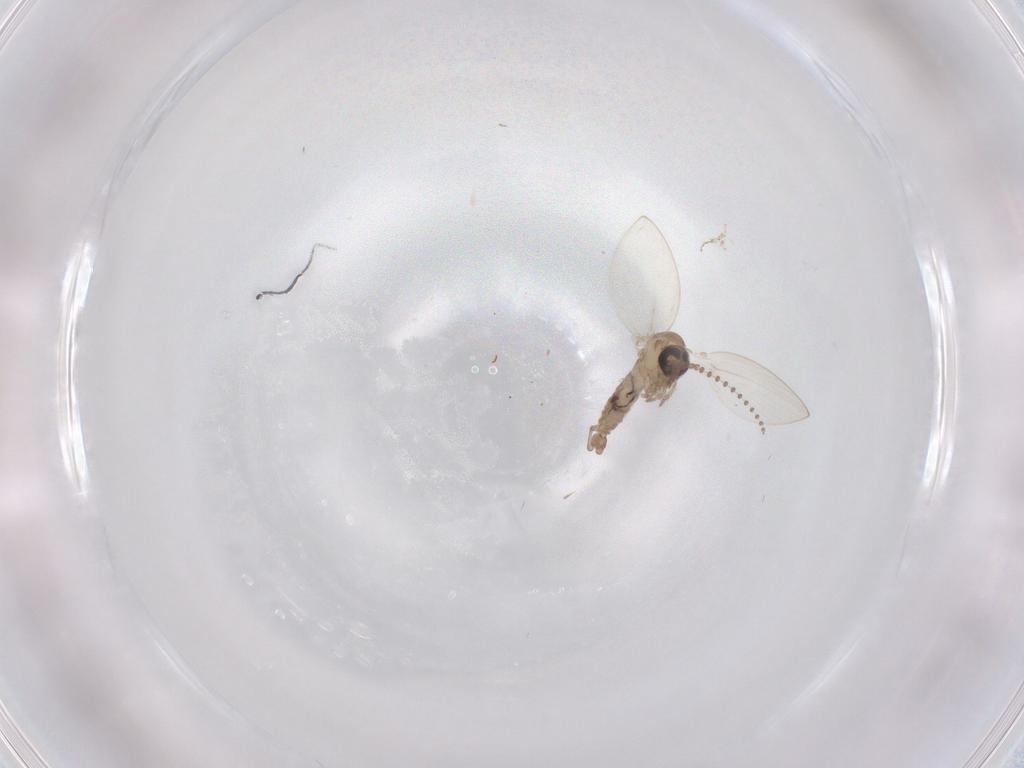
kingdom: Animalia
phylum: Arthropoda
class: Insecta
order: Diptera
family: Psychodidae
